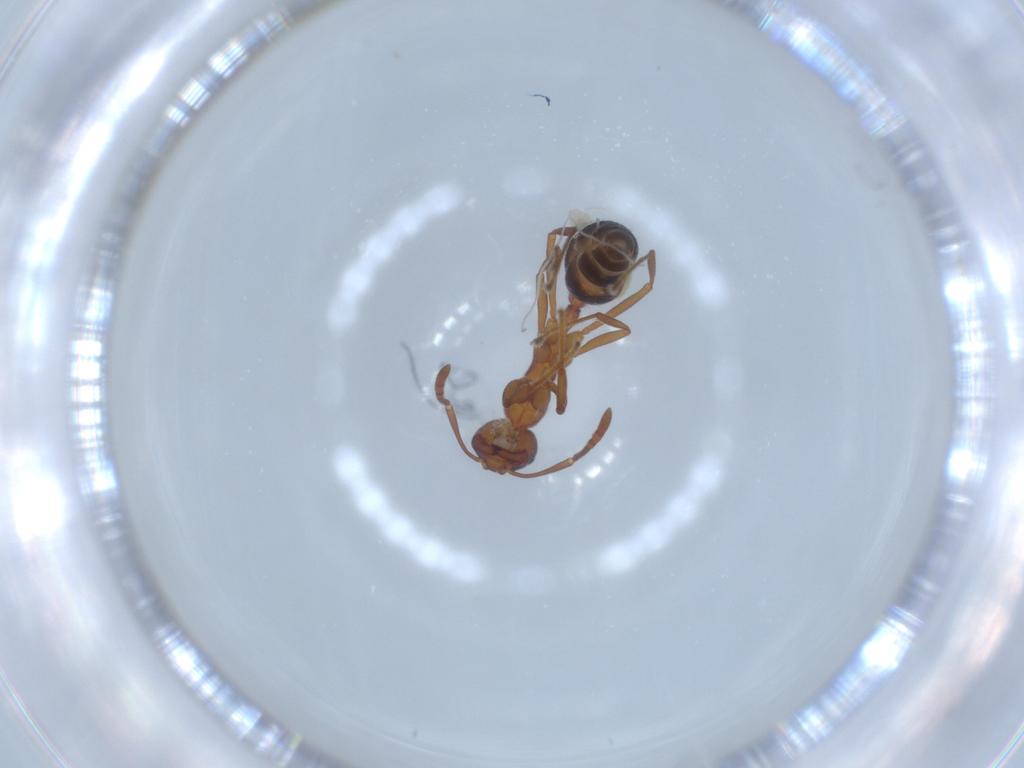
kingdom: Animalia
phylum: Arthropoda
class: Insecta
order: Hymenoptera
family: Formicidae
